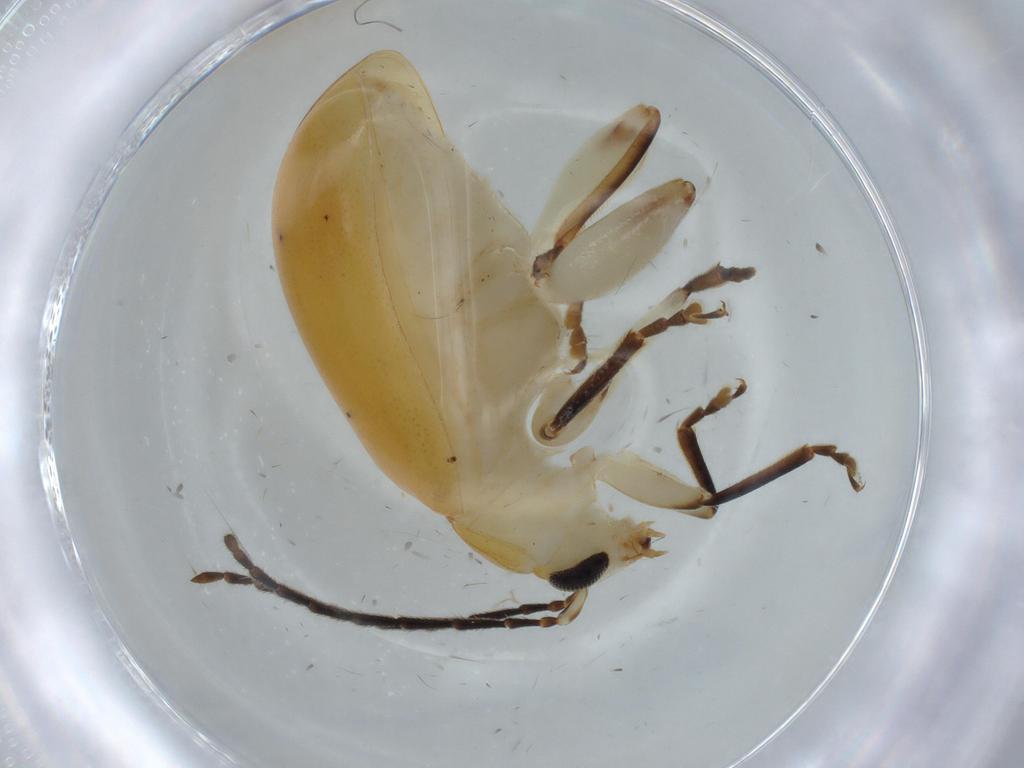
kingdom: Animalia
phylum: Arthropoda
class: Insecta
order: Coleoptera
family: Chrysomelidae
